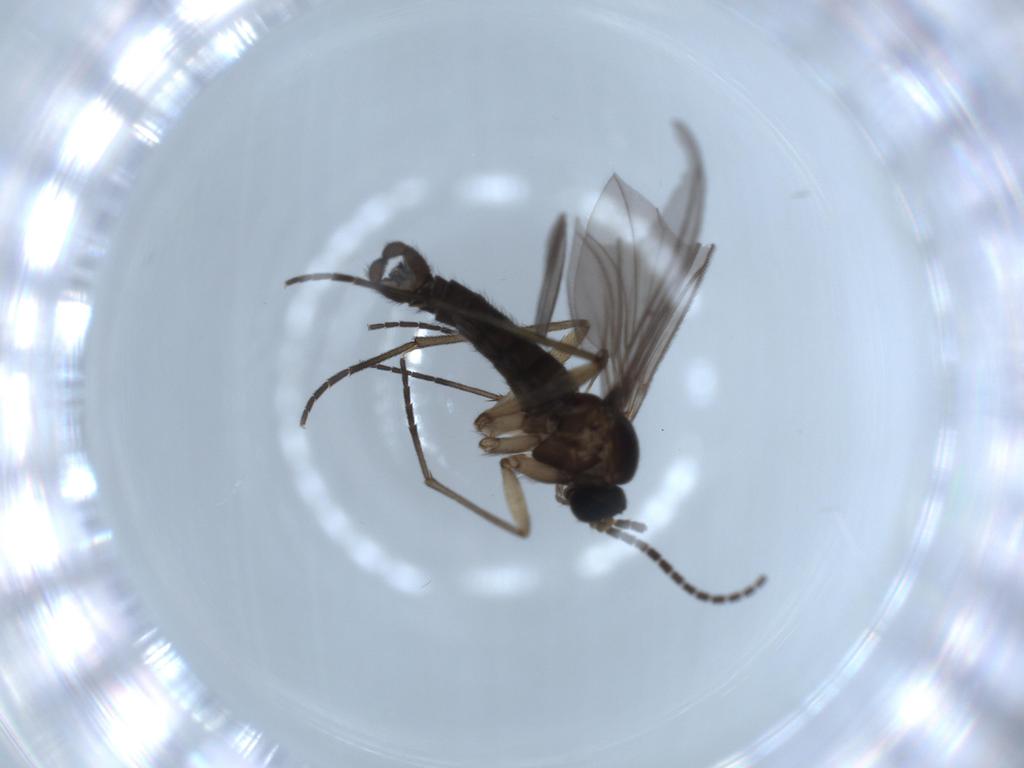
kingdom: Animalia
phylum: Arthropoda
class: Insecta
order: Diptera
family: Sciaridae
